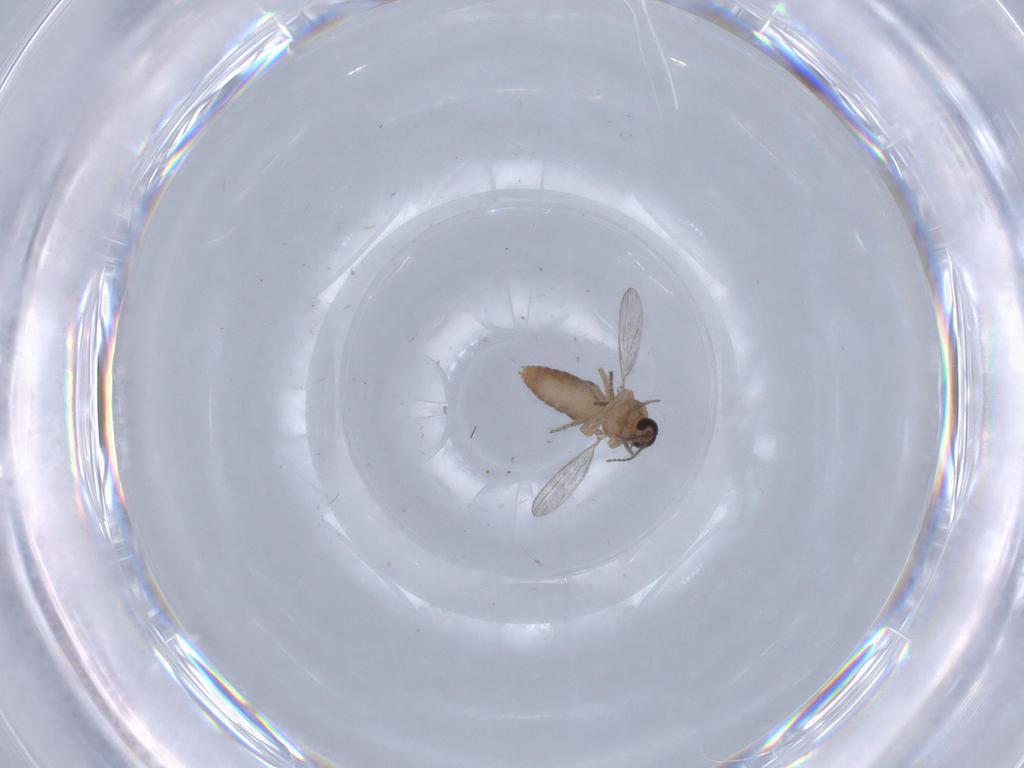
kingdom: Animalia
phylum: Arthropoda
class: Insecta
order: Diptera
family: Ceratopogonidae
